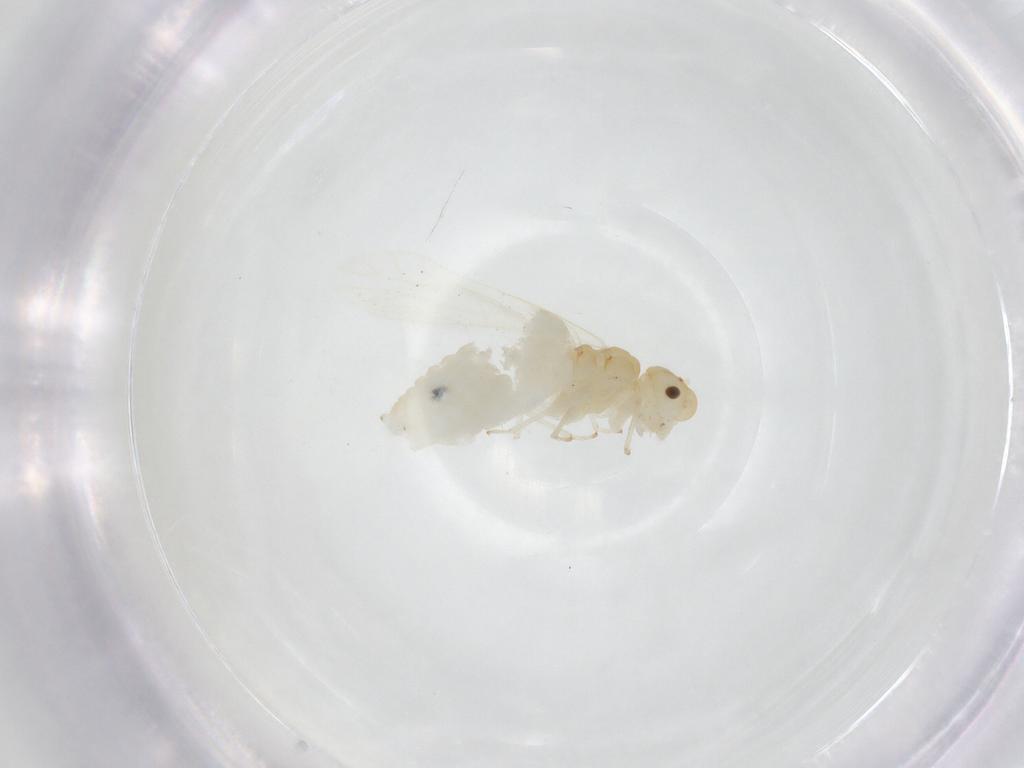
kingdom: Animalia
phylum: Arthropoda
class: Insecta
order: Psocodea
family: Caeciliusidae
